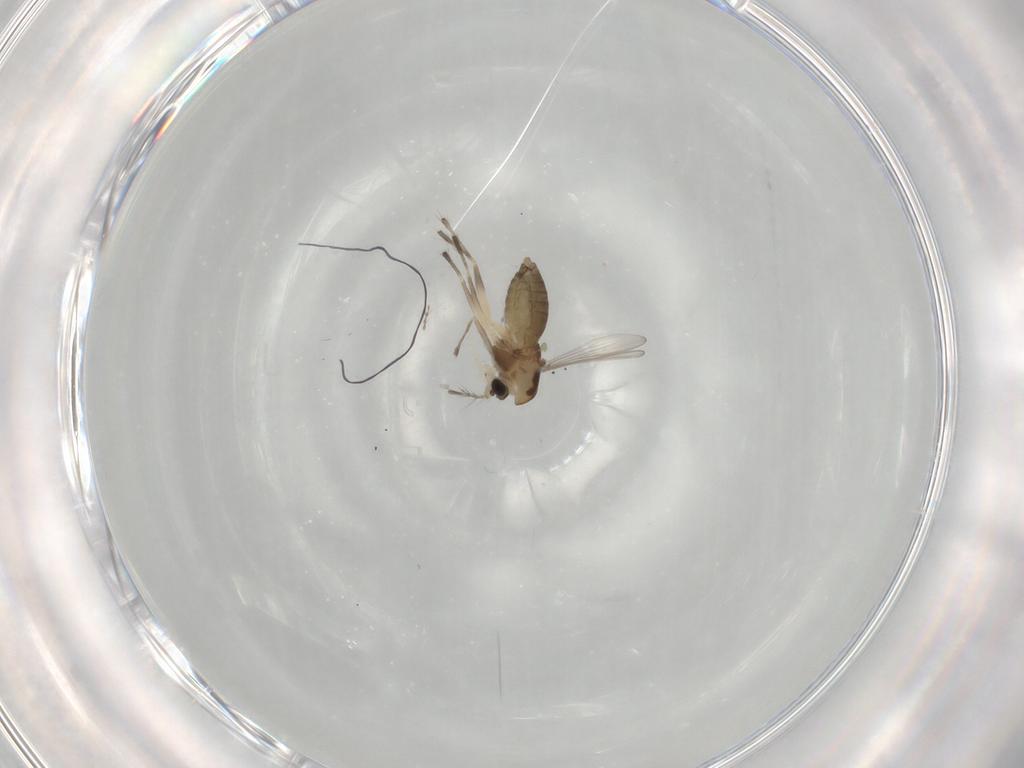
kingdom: Animalia
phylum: Arthropoda
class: Insecta
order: Diptera
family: Chironomidae
